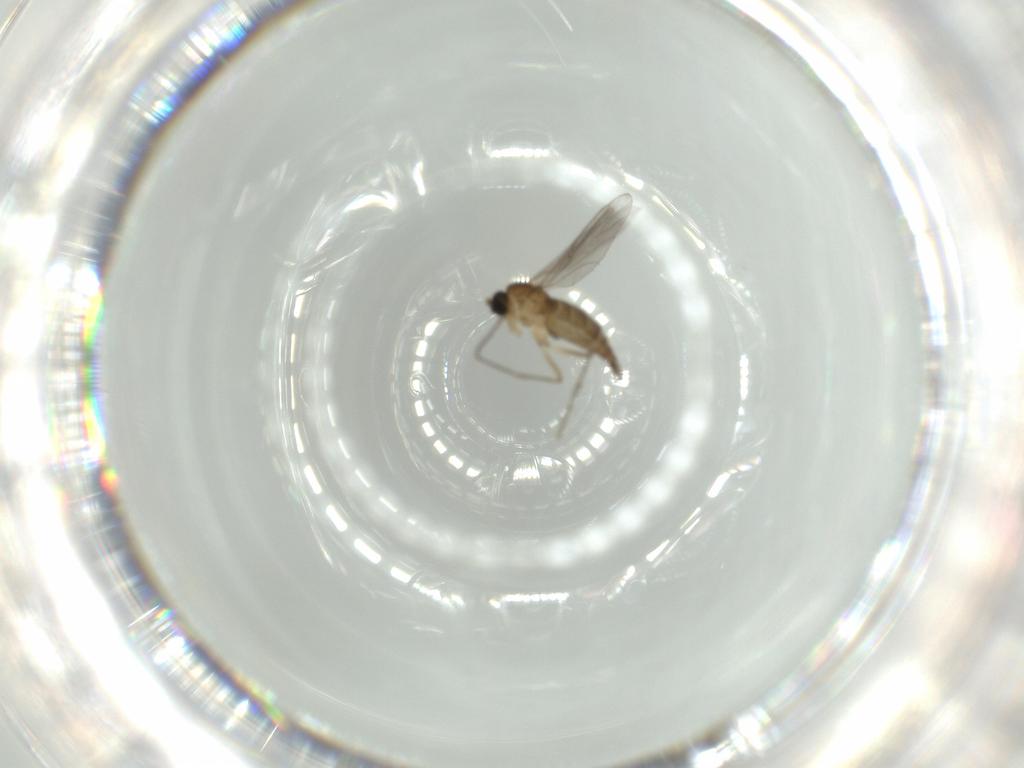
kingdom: Animalia
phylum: Arthropoda
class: Insecta
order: Diptera
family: Sciaridae
